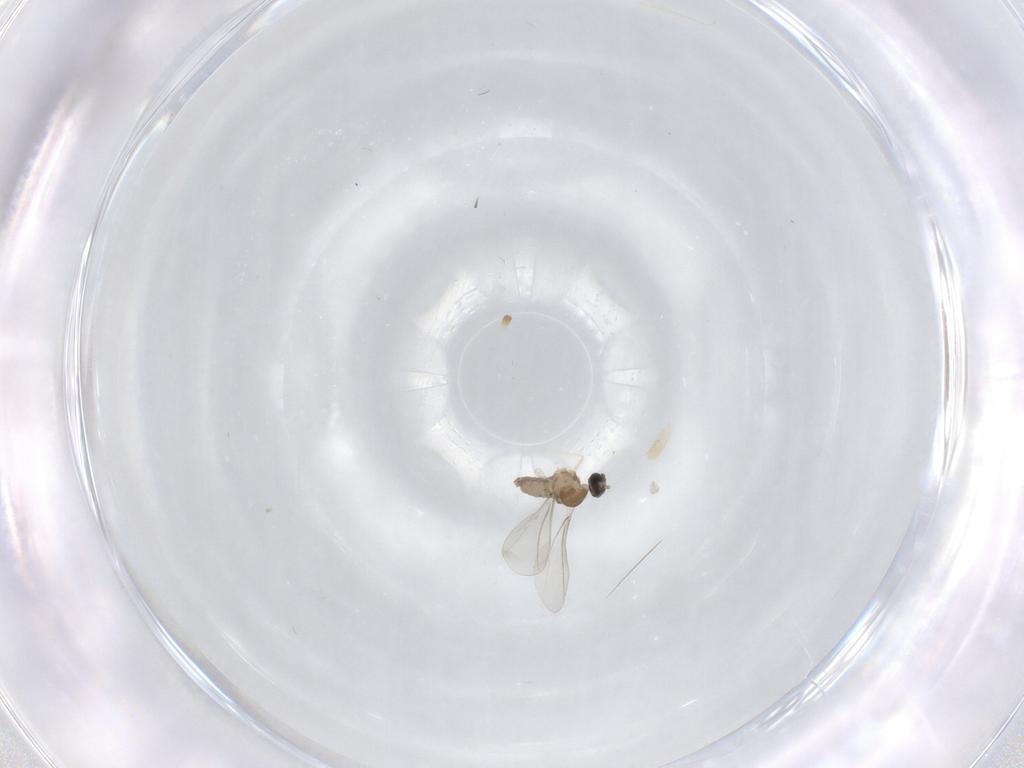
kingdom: Animalia
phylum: Arthropoda
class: Insecta
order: Diptera
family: Cecidomyiidae
